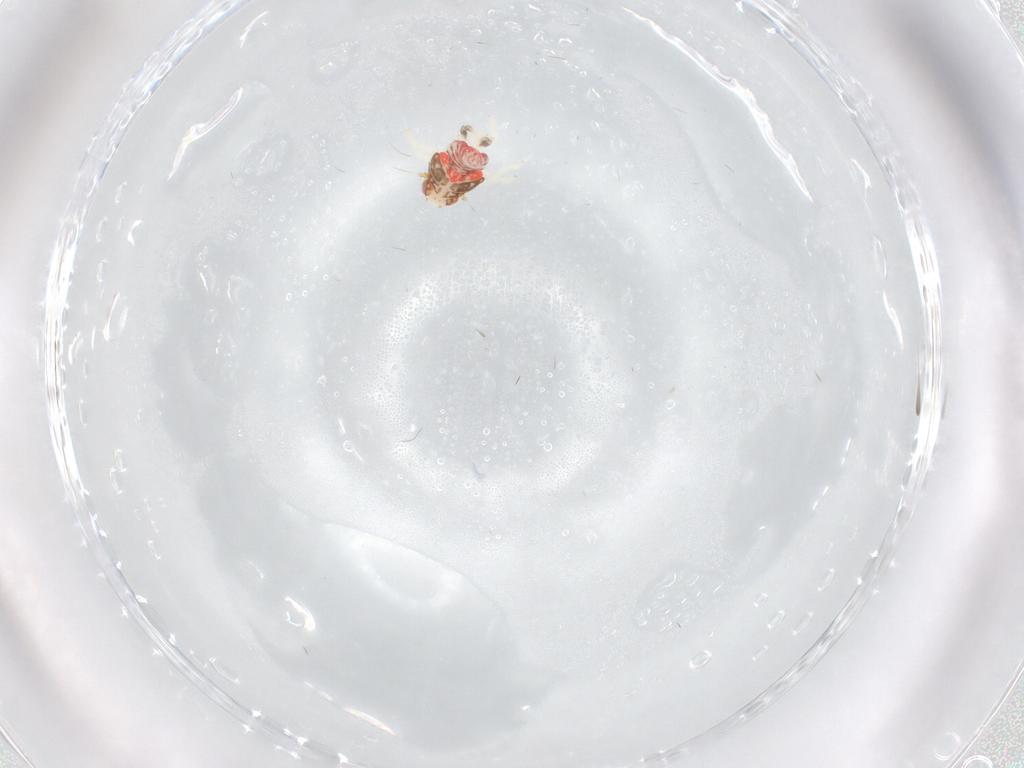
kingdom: Animalia
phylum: Arthropoda
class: Insecta
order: Hemiptera
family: Nogodinidae
